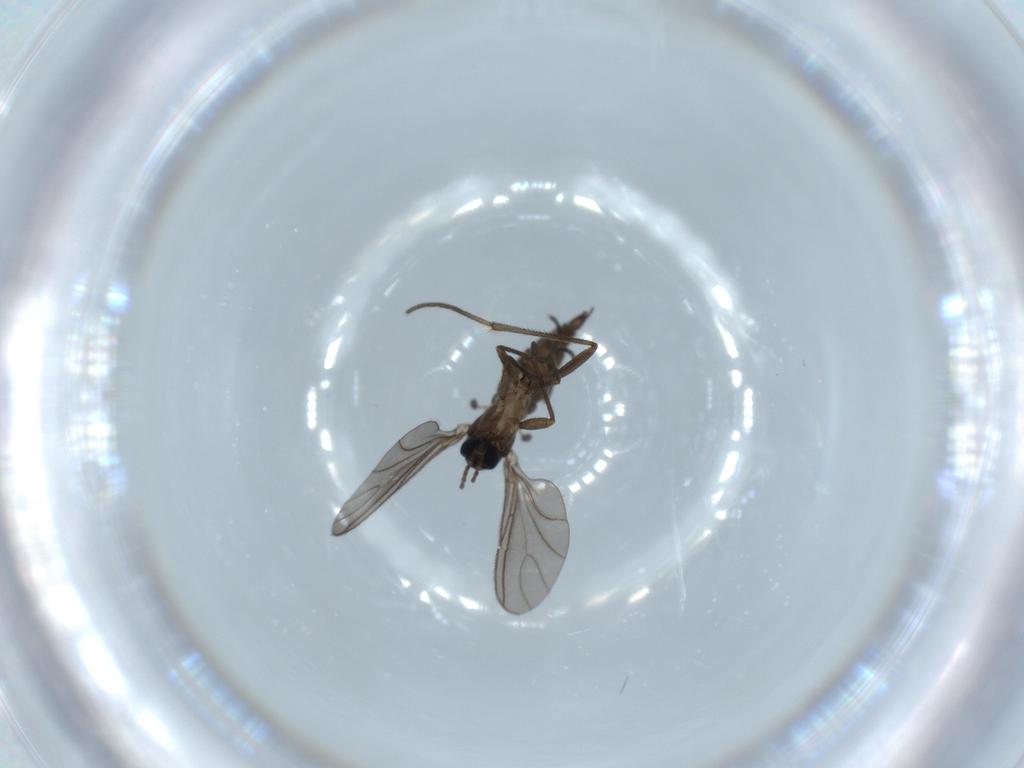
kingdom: Animalia
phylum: Arthropoda
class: Insecta
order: Diptera
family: Sciaridae
